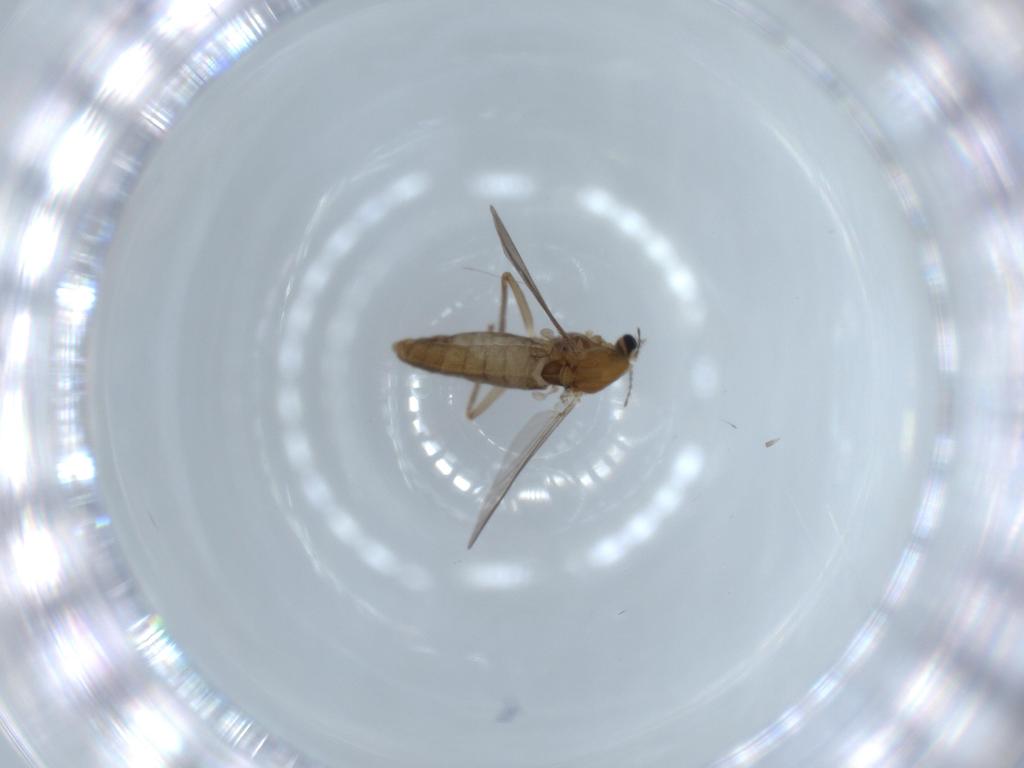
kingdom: Animalia
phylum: Arthropoda
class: Insecta
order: Diptera
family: Chironomidae
